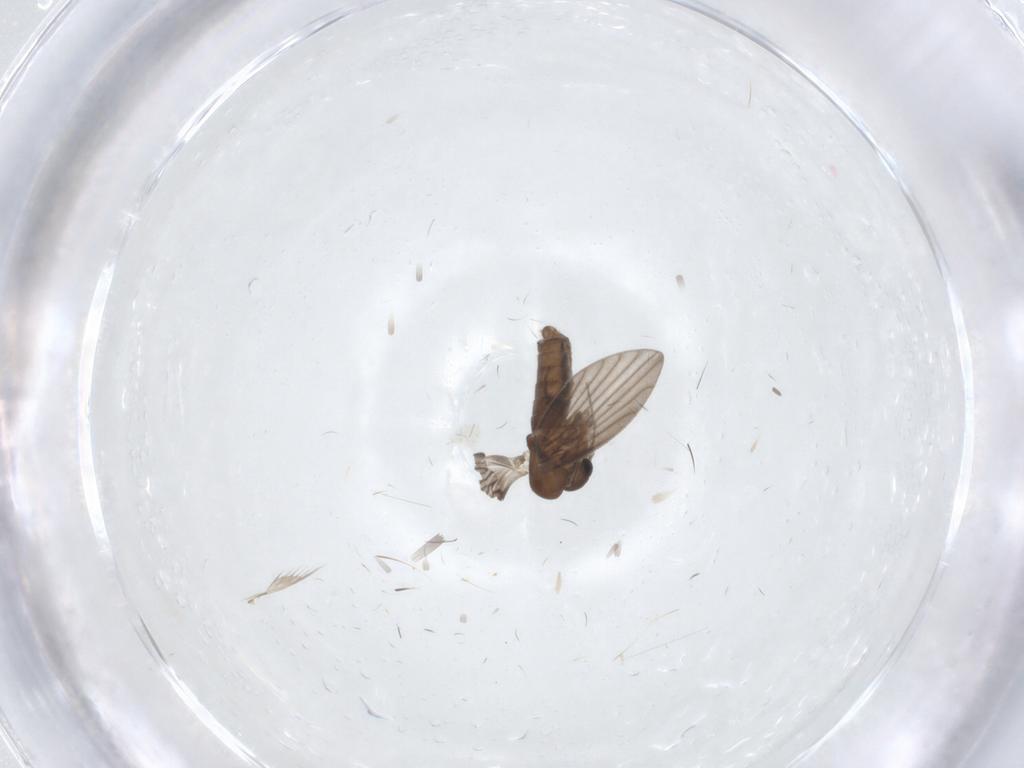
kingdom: Animalia
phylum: Arthropoda
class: Insecta
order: Diptera
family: Psychodidae
